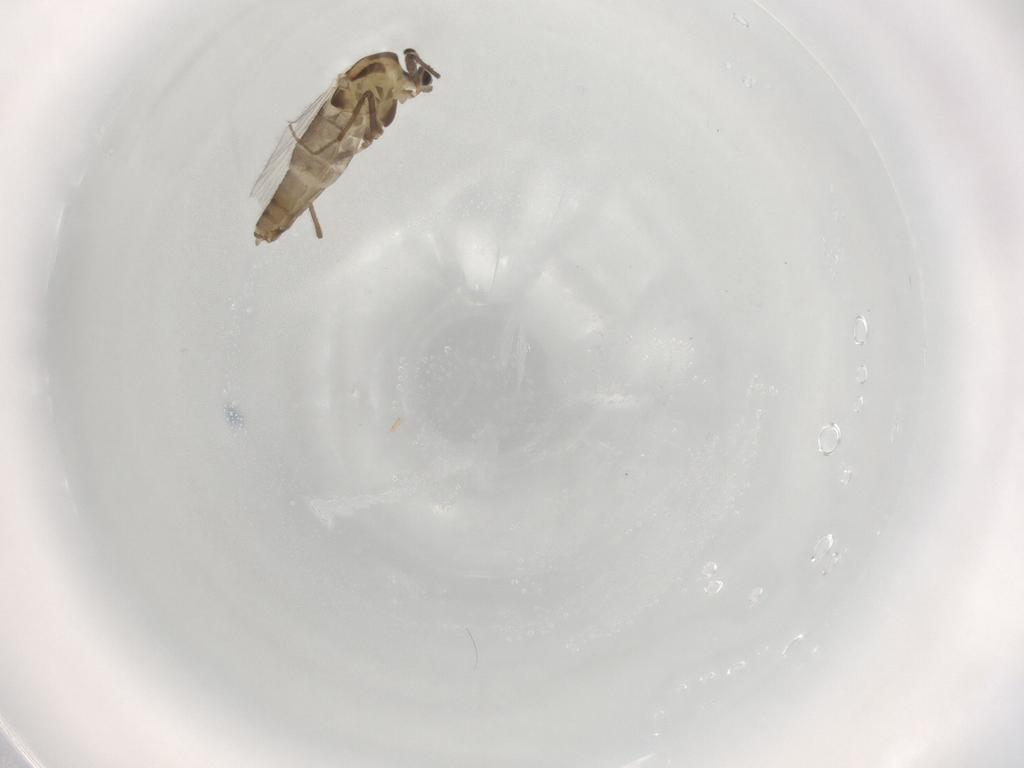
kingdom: Animalia
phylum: Arthropoda
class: Insecta
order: Diptera
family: Chironomidae
